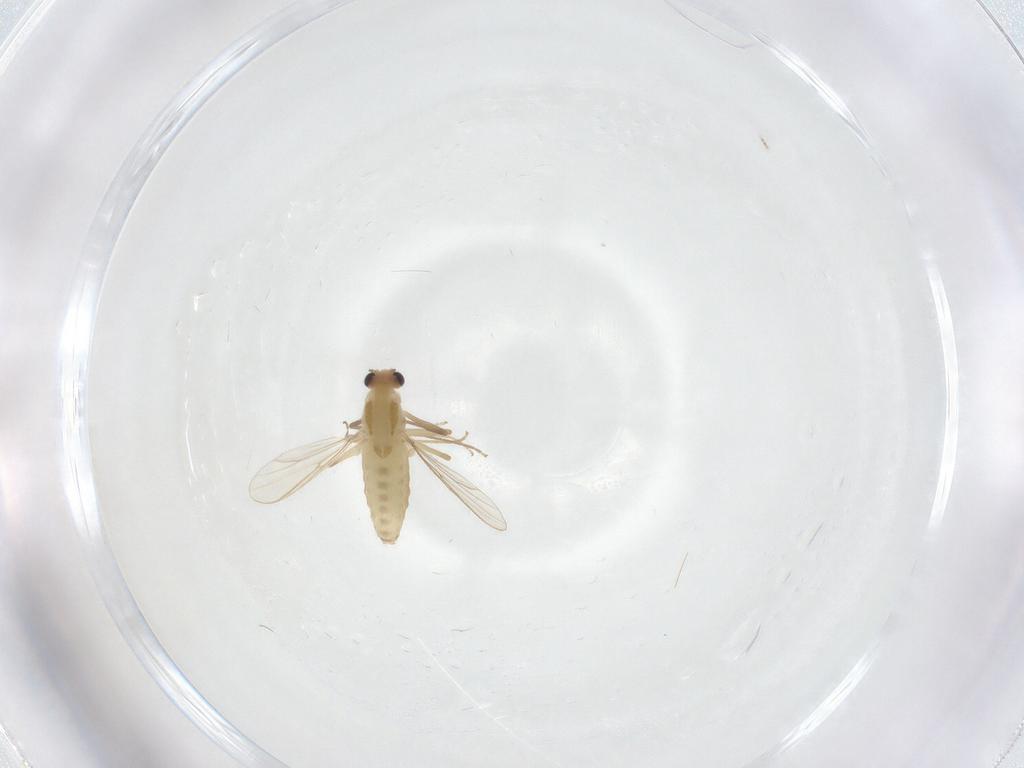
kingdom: Animalia
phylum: Arthropoda
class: Insecta
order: Diptera
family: Chironomidae
